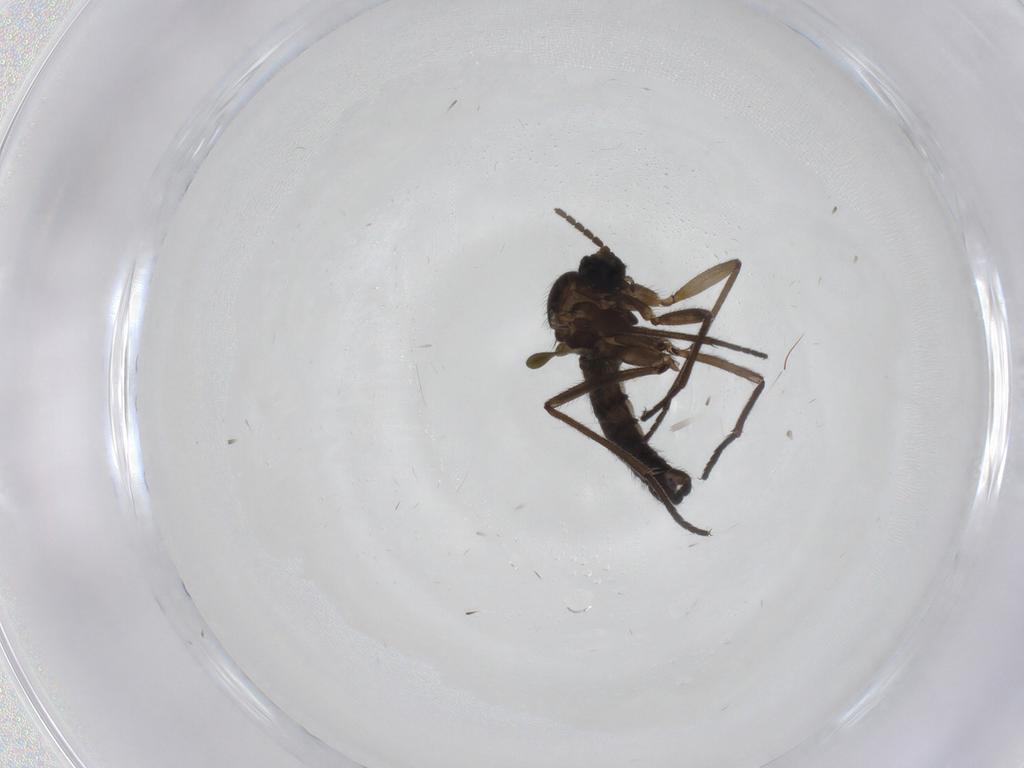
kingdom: Animalia
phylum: Arthropoda
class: Insecta
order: Diptera
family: Sciaridae
